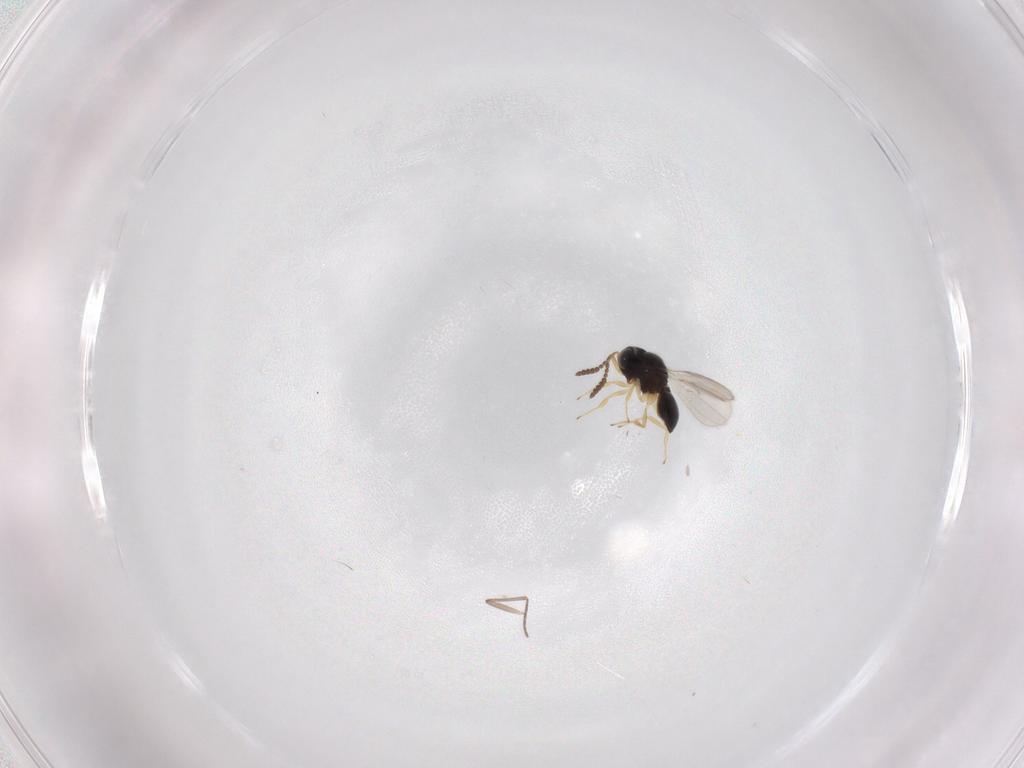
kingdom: Animalia
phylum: Arthropoda
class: Insecta
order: Hymenoptera
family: Scelionidae
